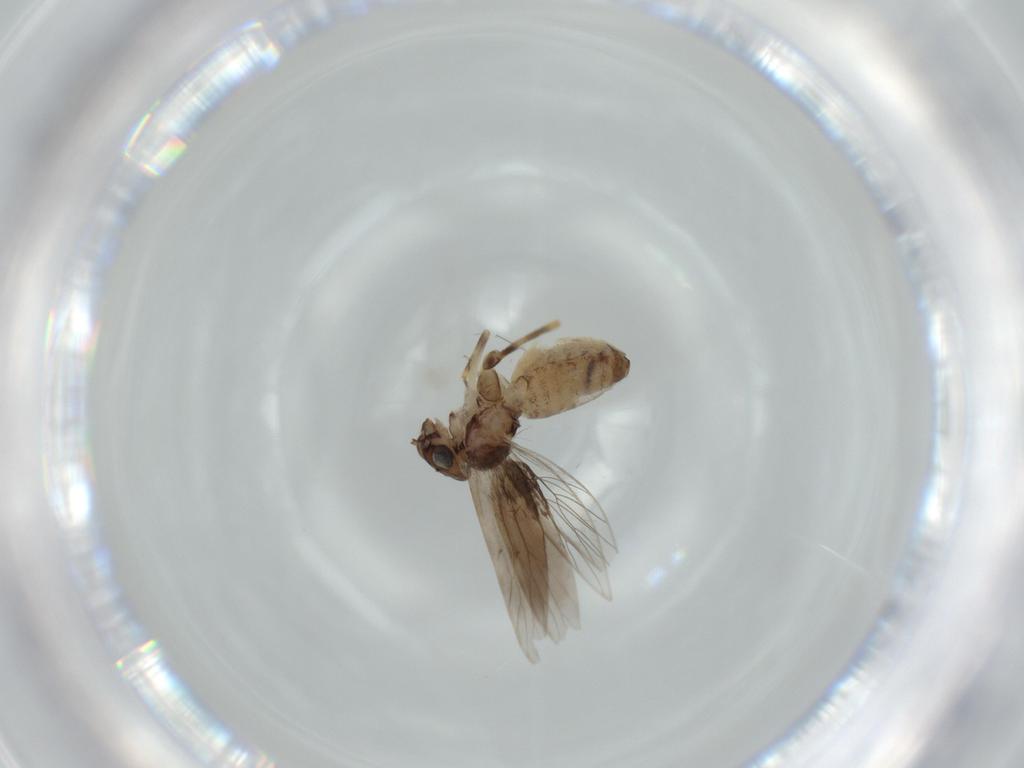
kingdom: Animalia
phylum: Arthropoda
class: Insecta
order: Psocodea
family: Lepidopsocidae
